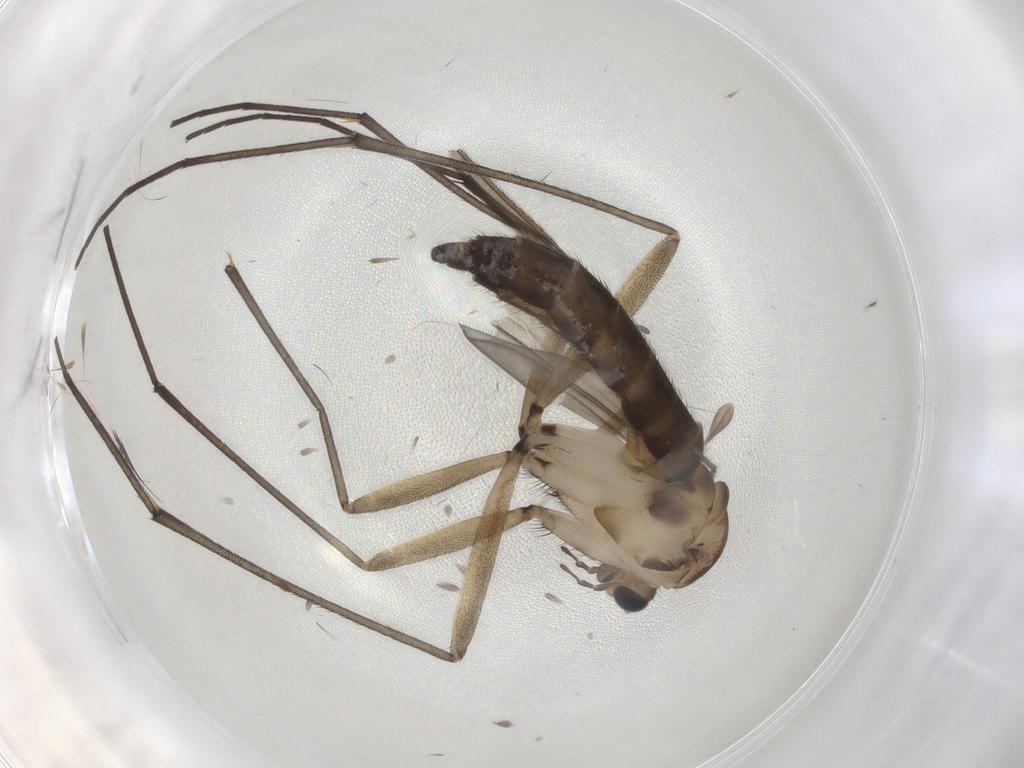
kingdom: Animalia
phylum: Arthropoda
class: Insecta
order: Diptera
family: Sciaridae
